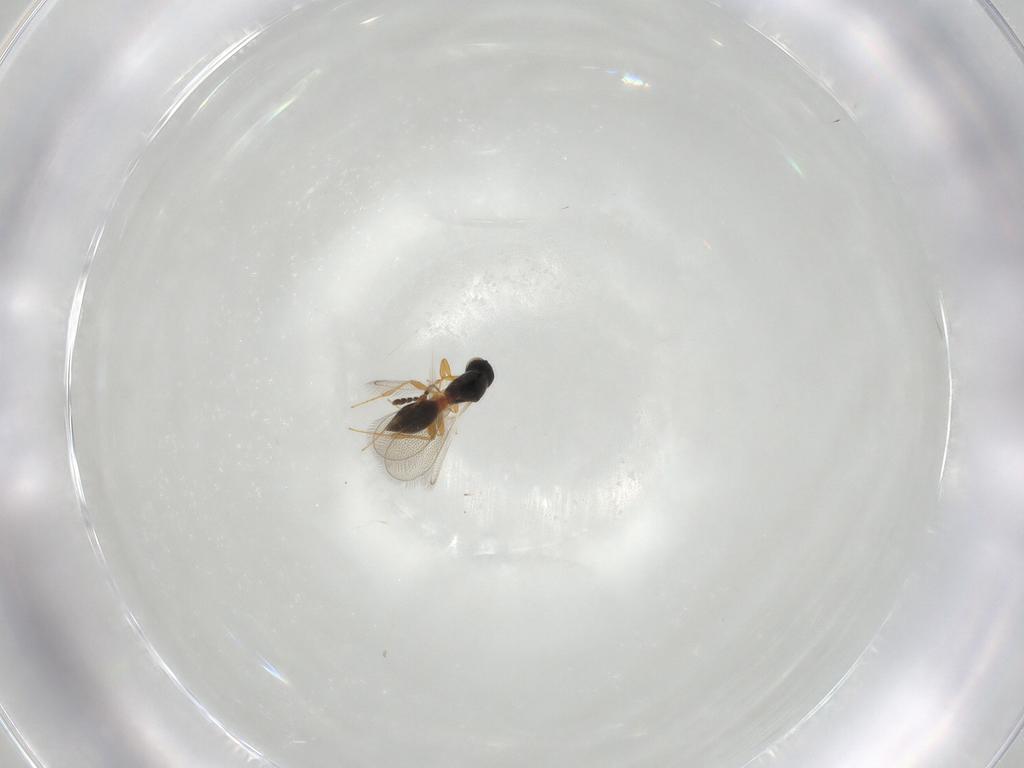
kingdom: Animalia
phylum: Arthropoda
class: Insecta
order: Hymenoptera
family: Platygastridae
